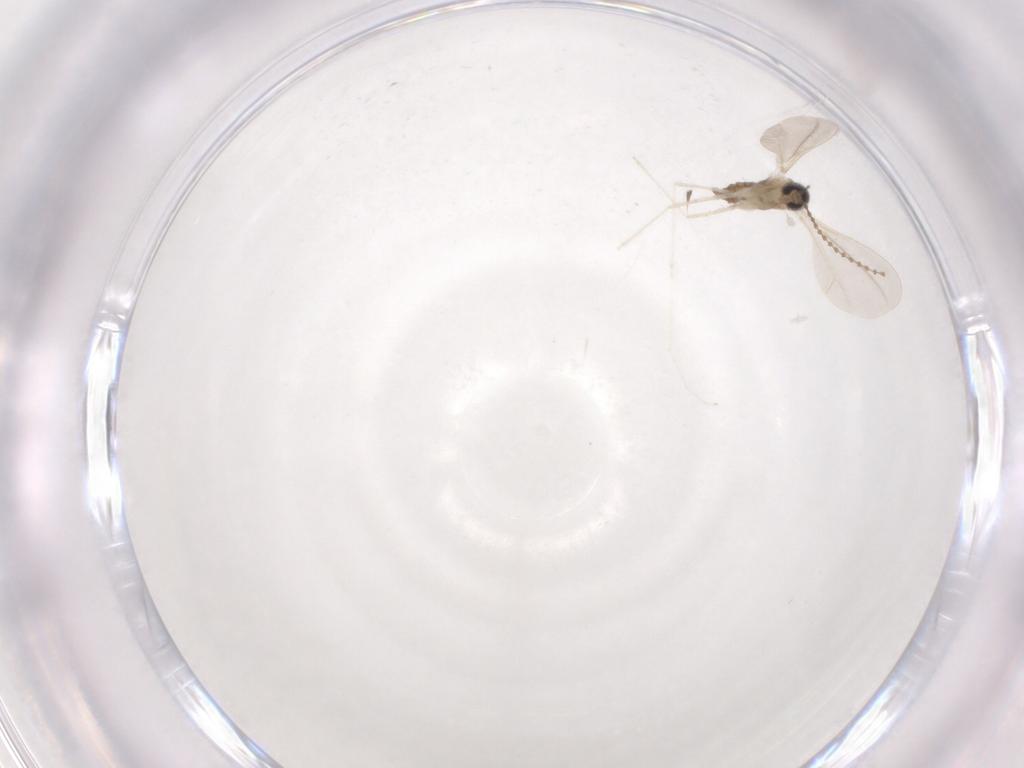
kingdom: Animalia
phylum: Arthropoda
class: Insecta
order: Diptera
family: Cecidomyiidae
